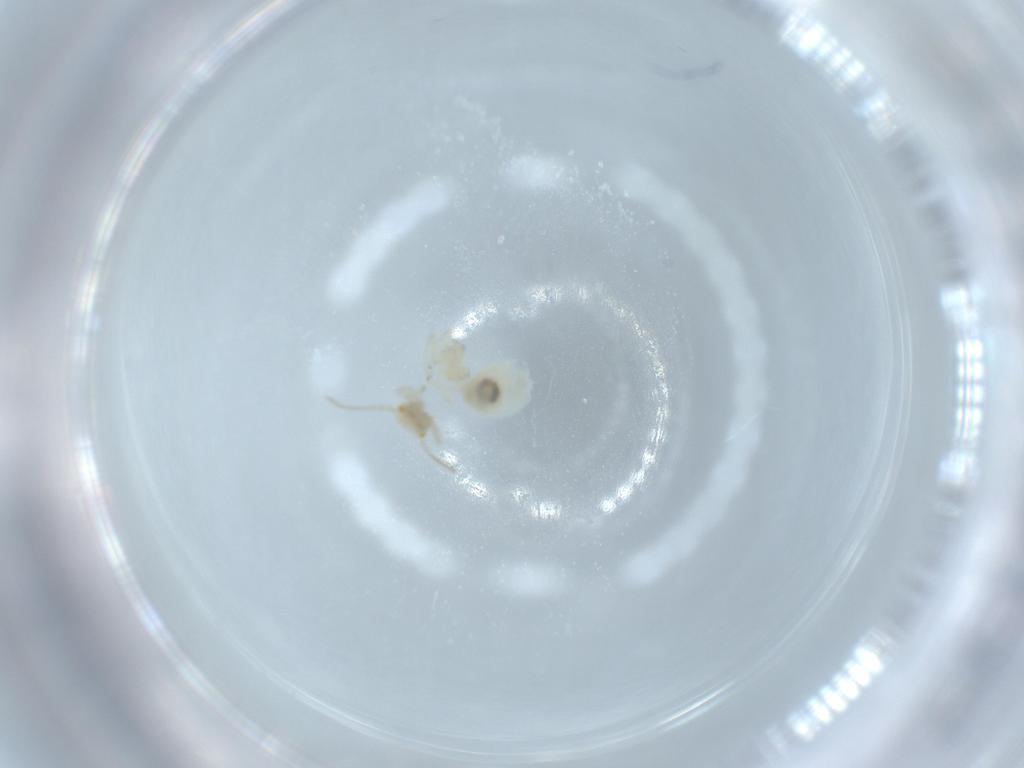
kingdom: Animalia
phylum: Arthropoda
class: Insecta
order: Psocodea
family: Caeciliusidae
